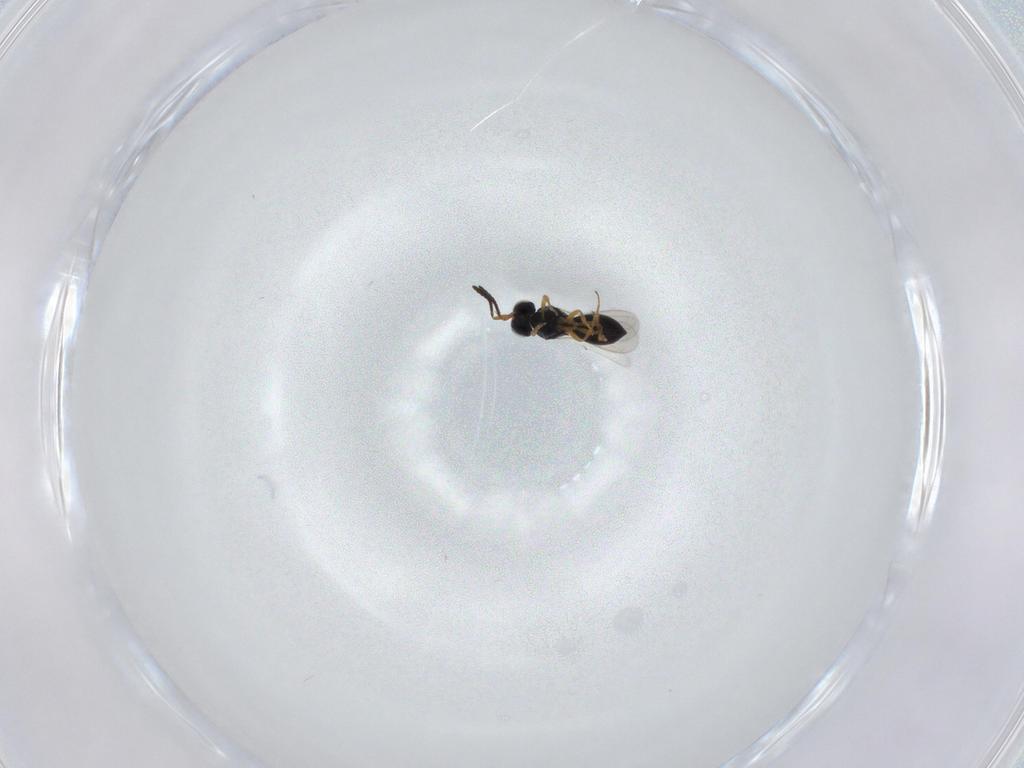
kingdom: Animalia
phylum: Arthropoda
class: Insecta
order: Hymenoptera
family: Scelionidae
